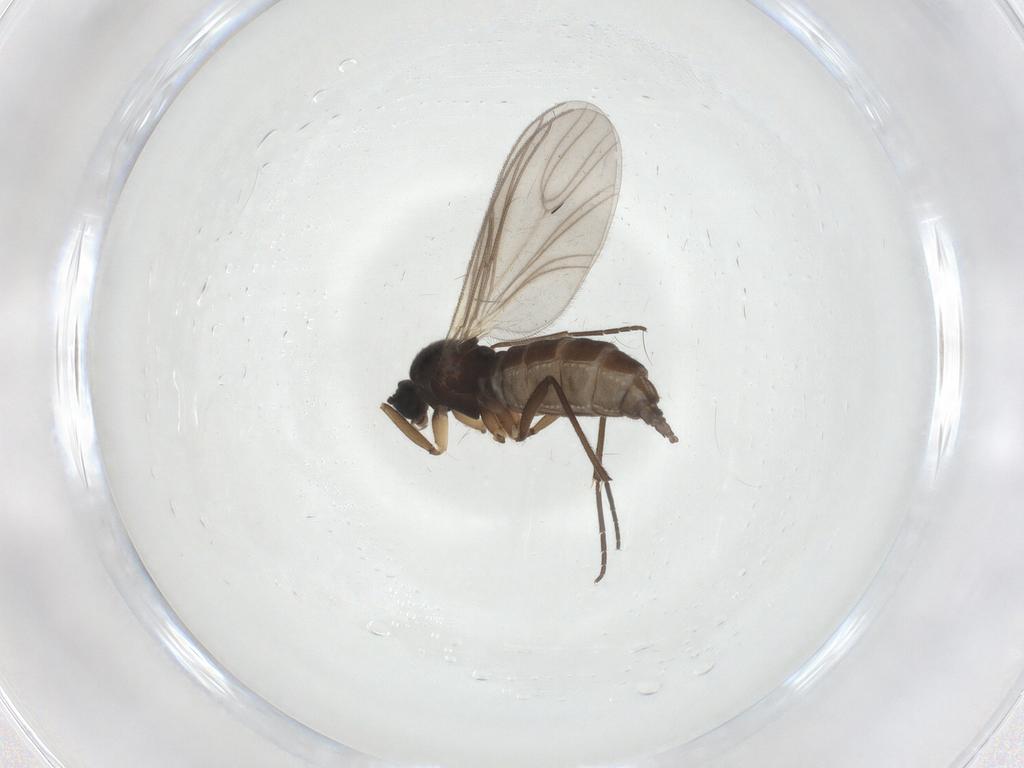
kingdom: Animalia
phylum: Arthropoda
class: Insecta
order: Diptera
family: Sciaridae
